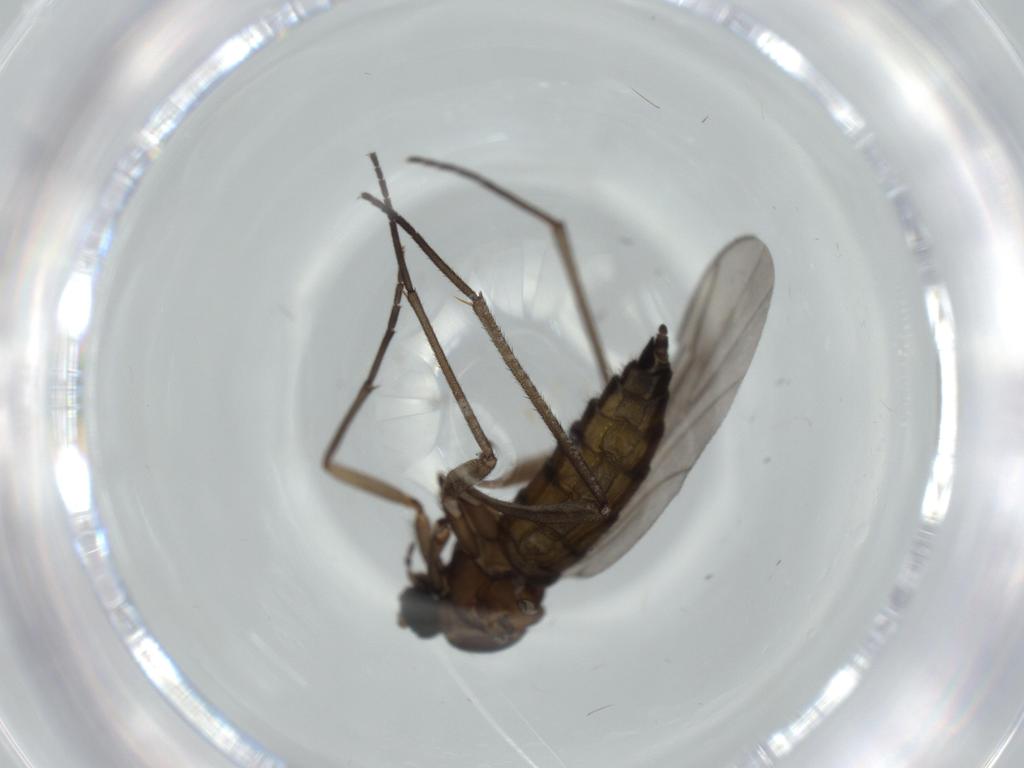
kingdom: Animalia
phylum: Arthropoda
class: Insecta
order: Diptera
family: Sciaridae
